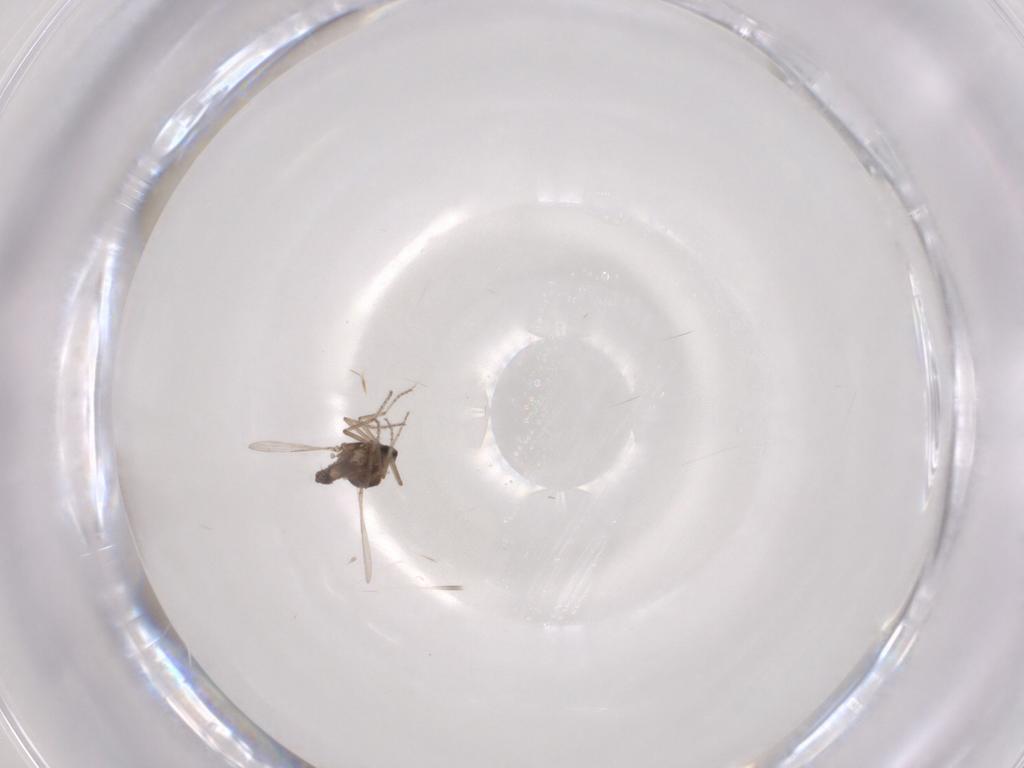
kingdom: Animalia
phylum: Arthropoda
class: Insecta
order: Diptera
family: Ceratopogonidae
